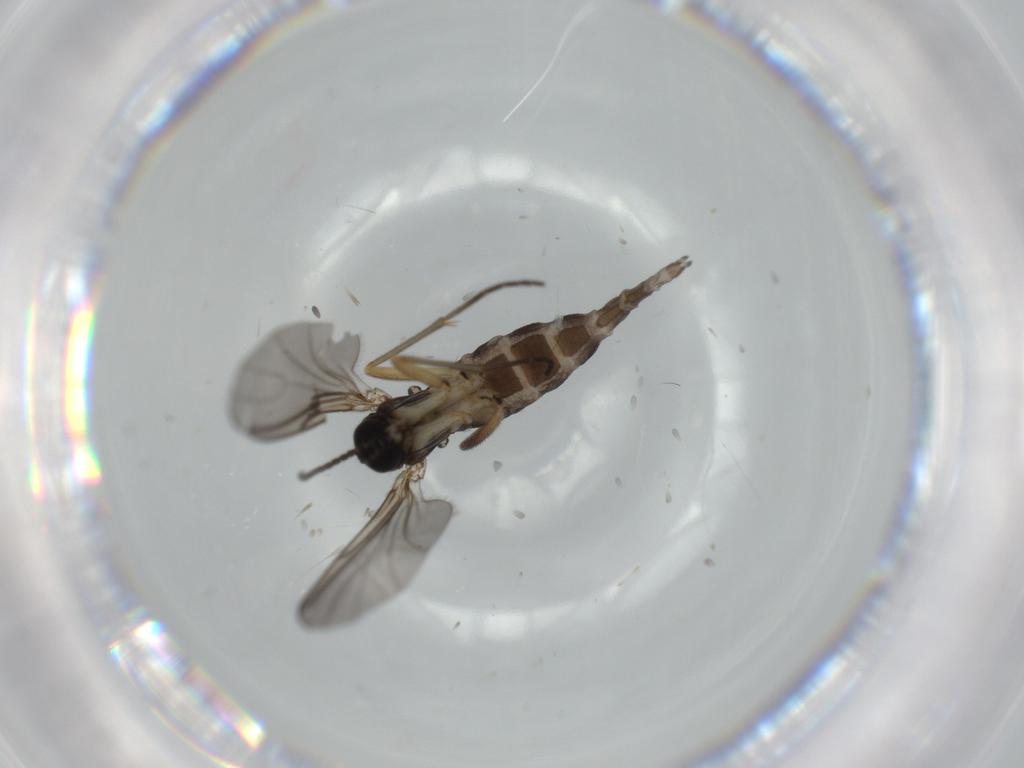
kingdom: Animalia
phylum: Arthropoda
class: Insecta
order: Diptera
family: Sciaridae
